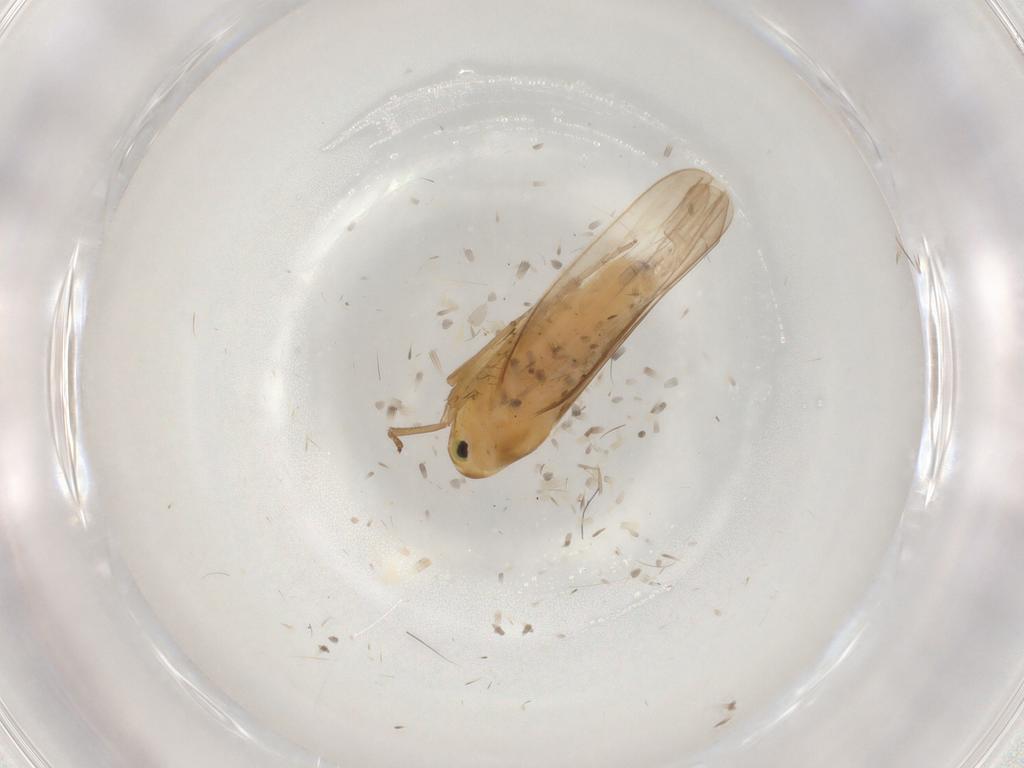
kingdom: Animalia
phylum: Arthropoda
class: Insecta
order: Hemiptera
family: Cicadellidae
